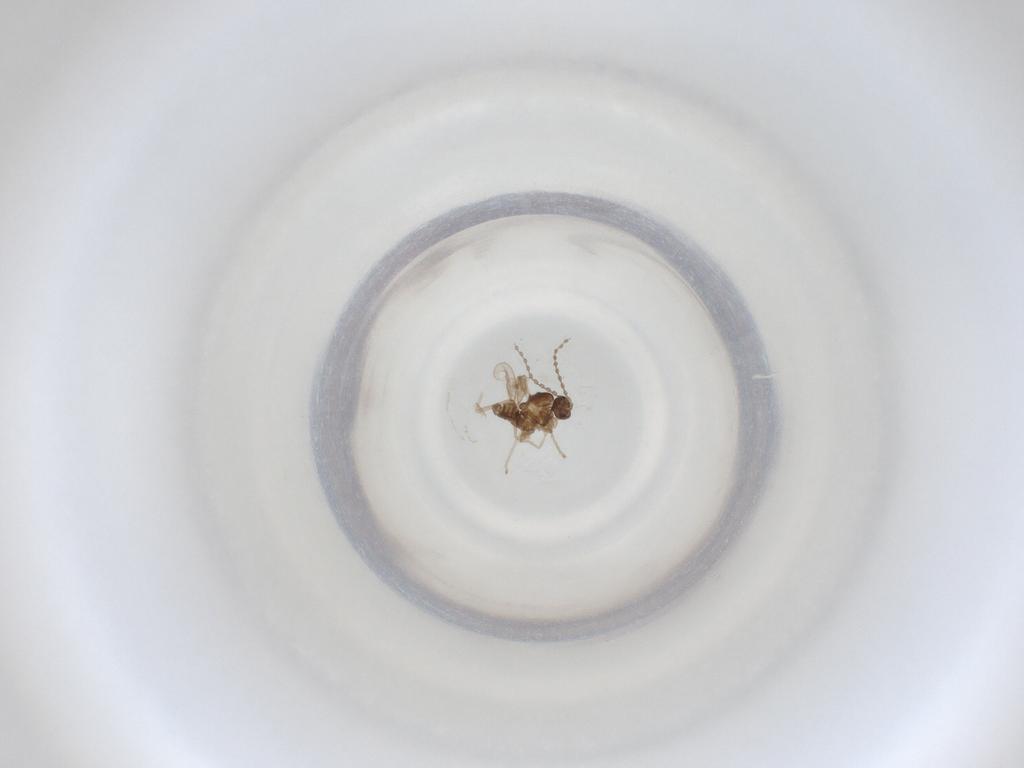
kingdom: Animalia
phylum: Arthropoda
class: Insecta
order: Diptera
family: Cecidomyiidae
